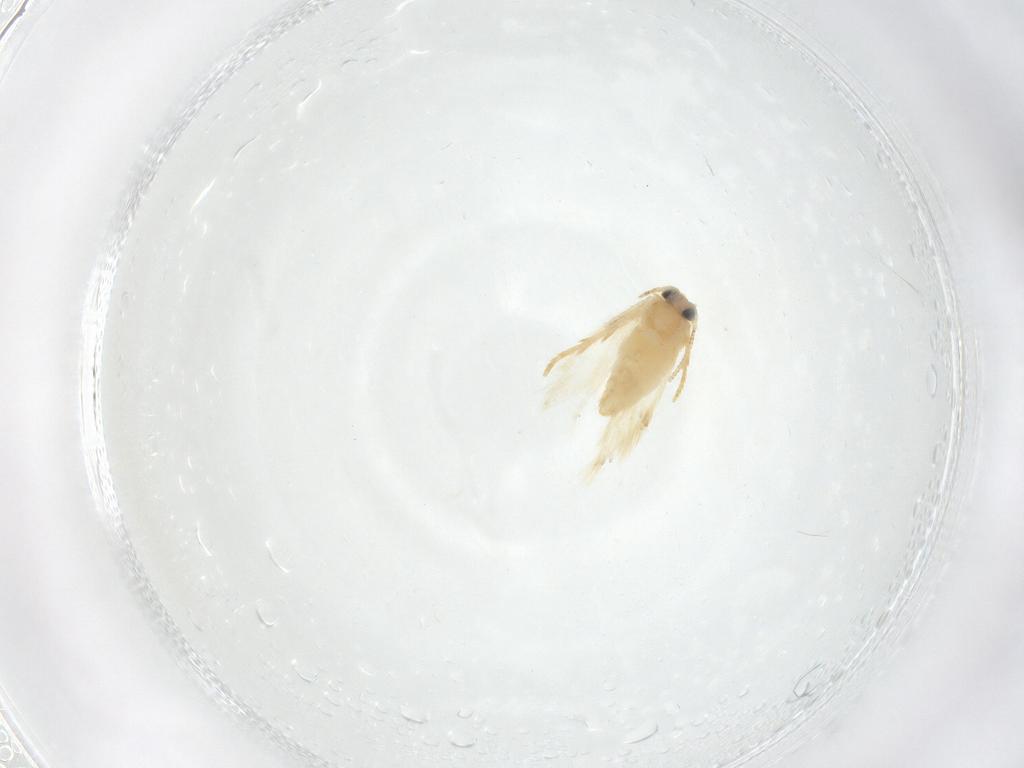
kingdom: Animalia
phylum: Arthropoda
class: Insecta
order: Lepidoptera
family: Nepticulidae
